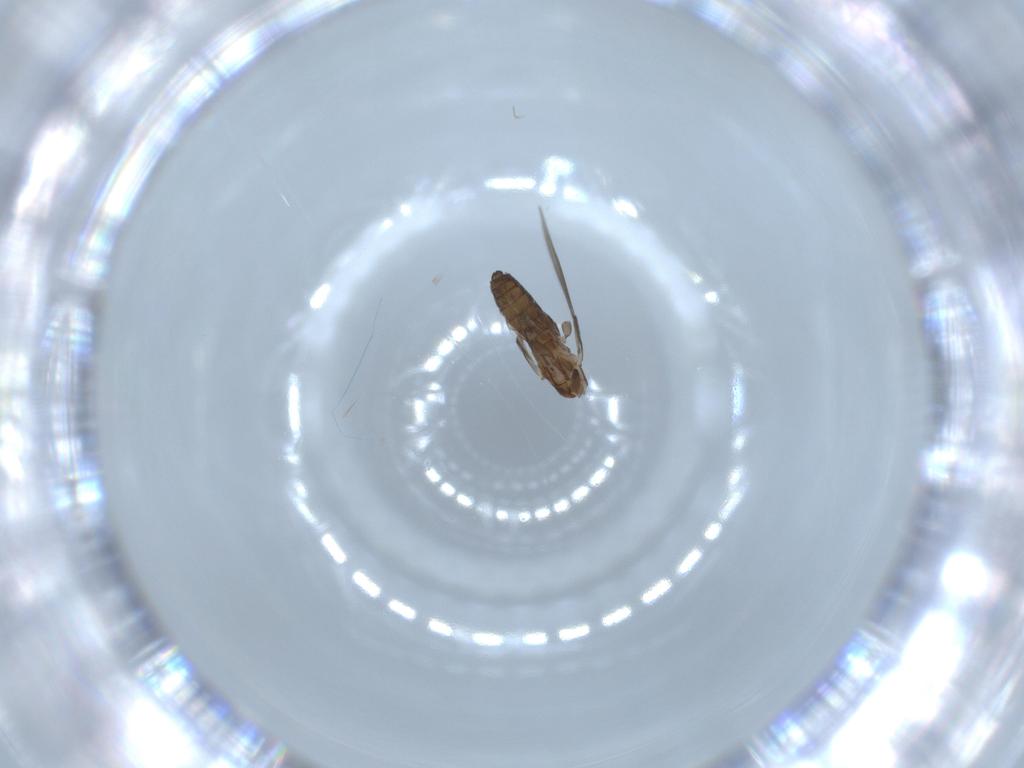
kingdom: Animalia
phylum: Arthropoda
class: Insecta
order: Diptera
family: Psychodidae
